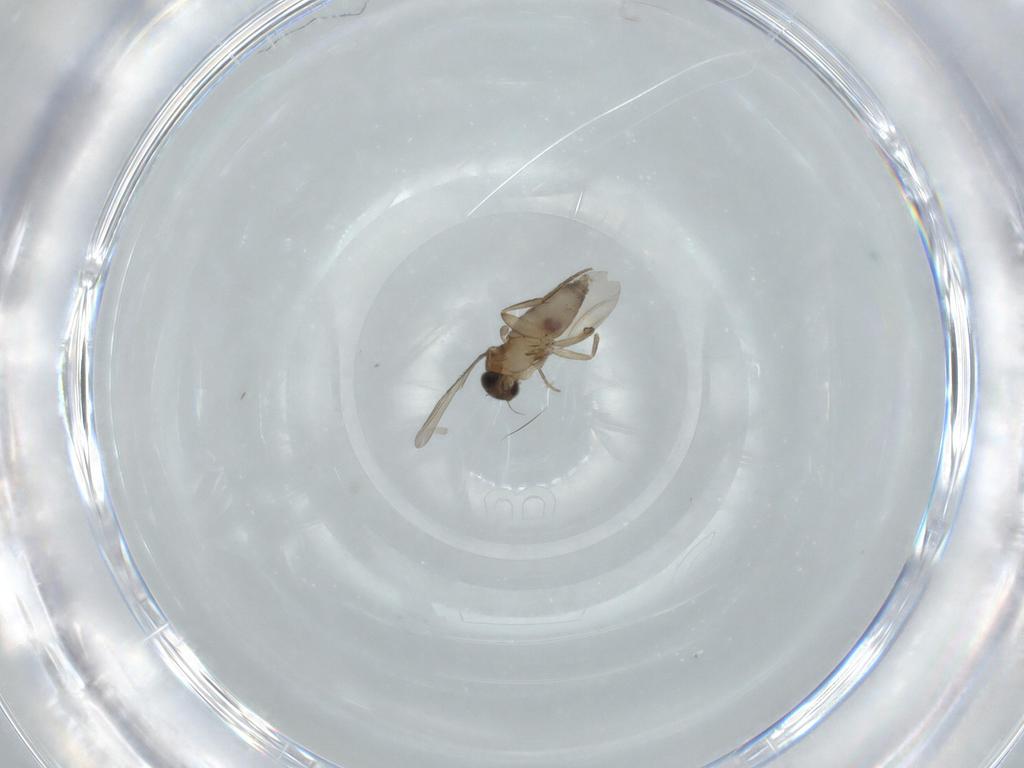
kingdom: Animalia
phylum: Arthropoda
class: Insecta
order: Diptera
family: Phoridae
